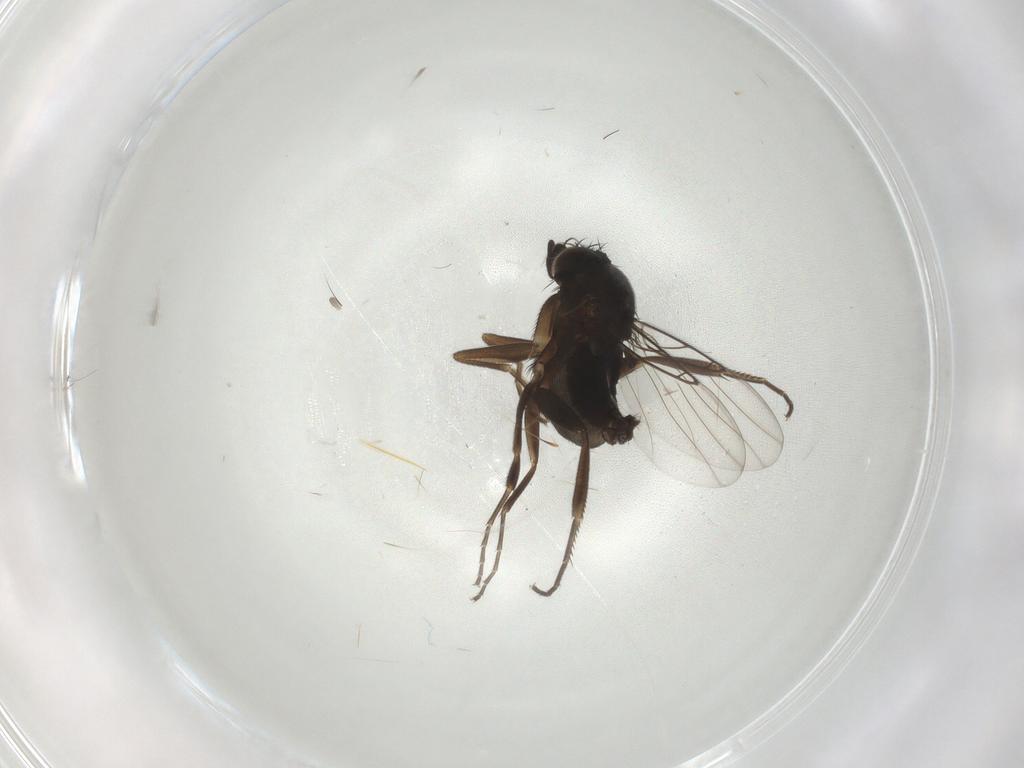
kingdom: Animalia
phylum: Arthropoda
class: Insecta
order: Diptera
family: Phoridae
